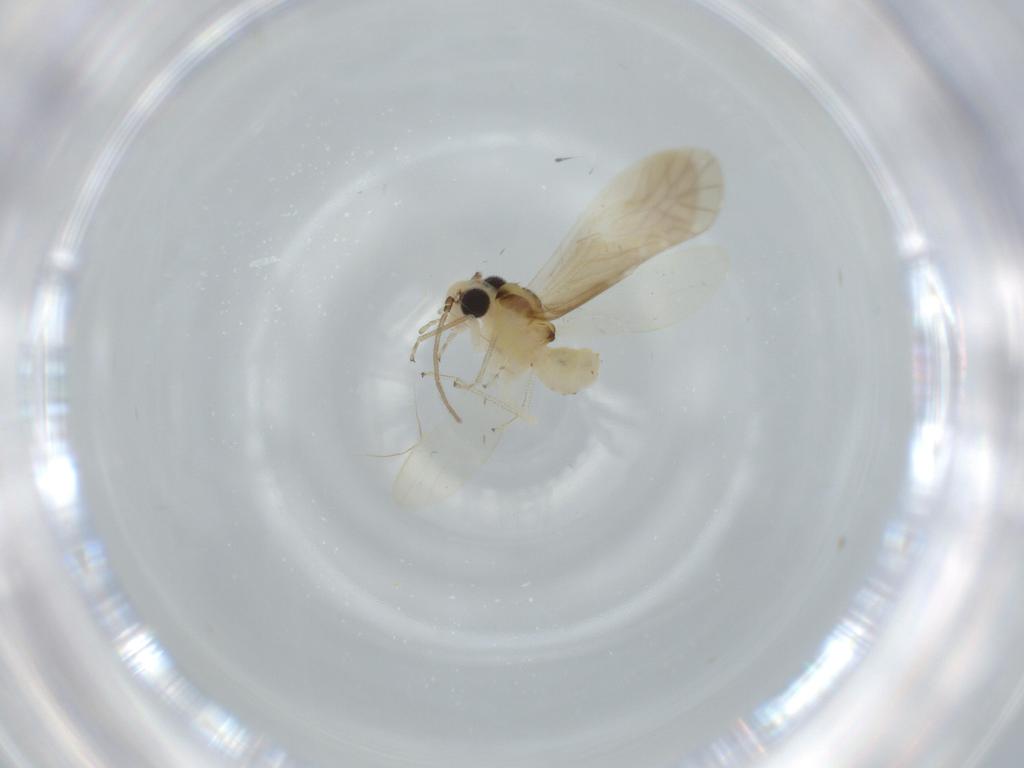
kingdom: Animalia
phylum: Arthropoda
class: Insecta
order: Psocodea
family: Caeciliusidae
